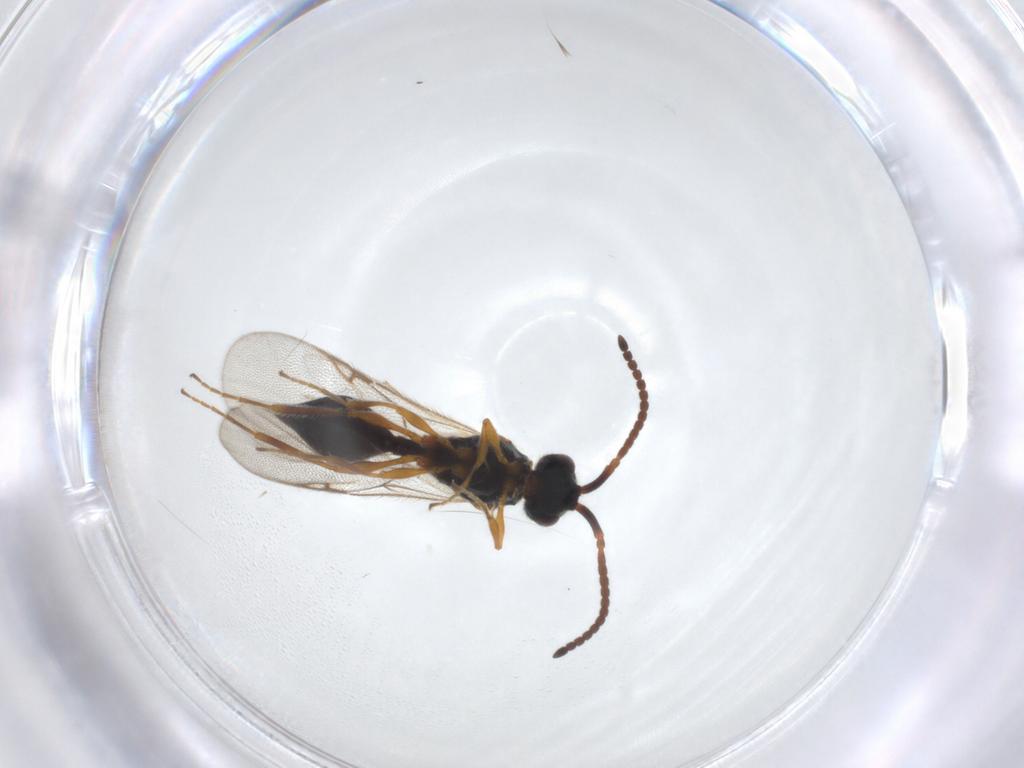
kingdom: Animalia
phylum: Arthropoda
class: Insecta
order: Hymenoptera
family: Diapriidae
